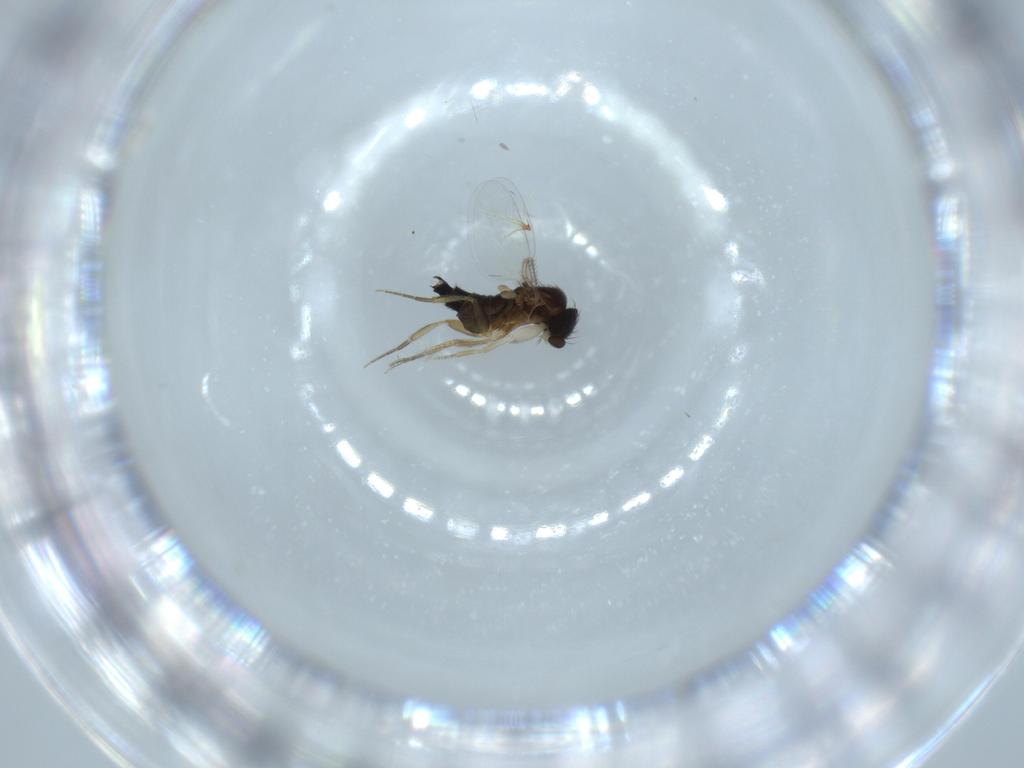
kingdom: Animalia
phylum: Arthropoda
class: Insecta
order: Diptera
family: Phoridae
